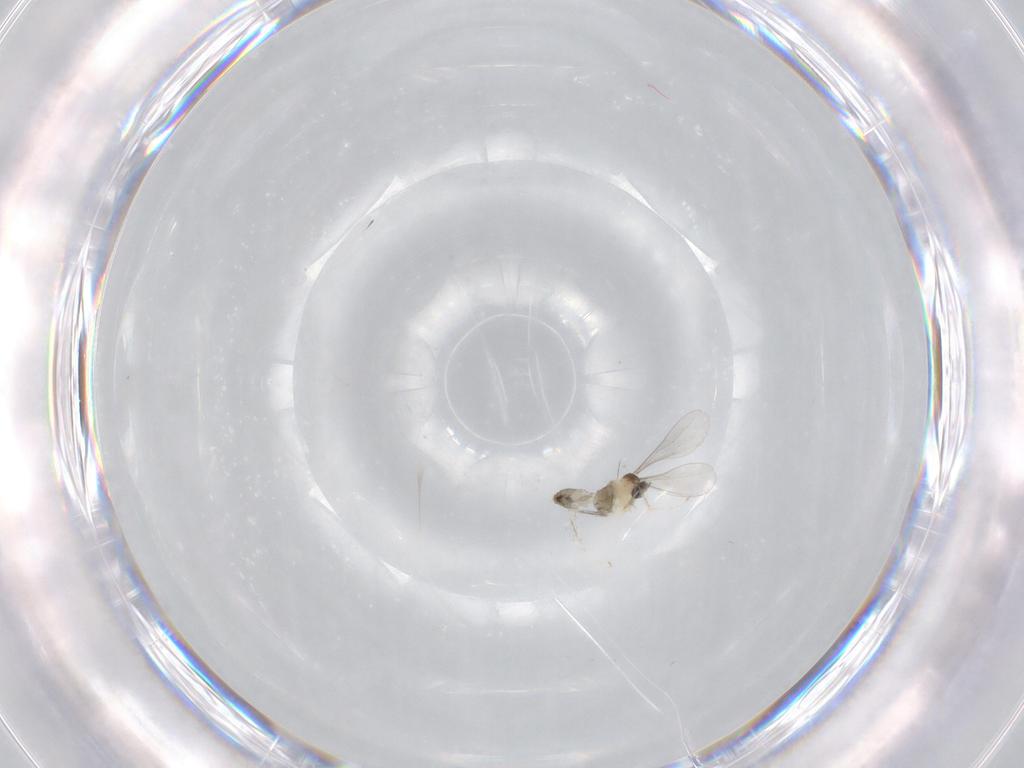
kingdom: Animalia
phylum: Arthropoda
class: Insecta
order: Diptera
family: Cecidomyiidae
